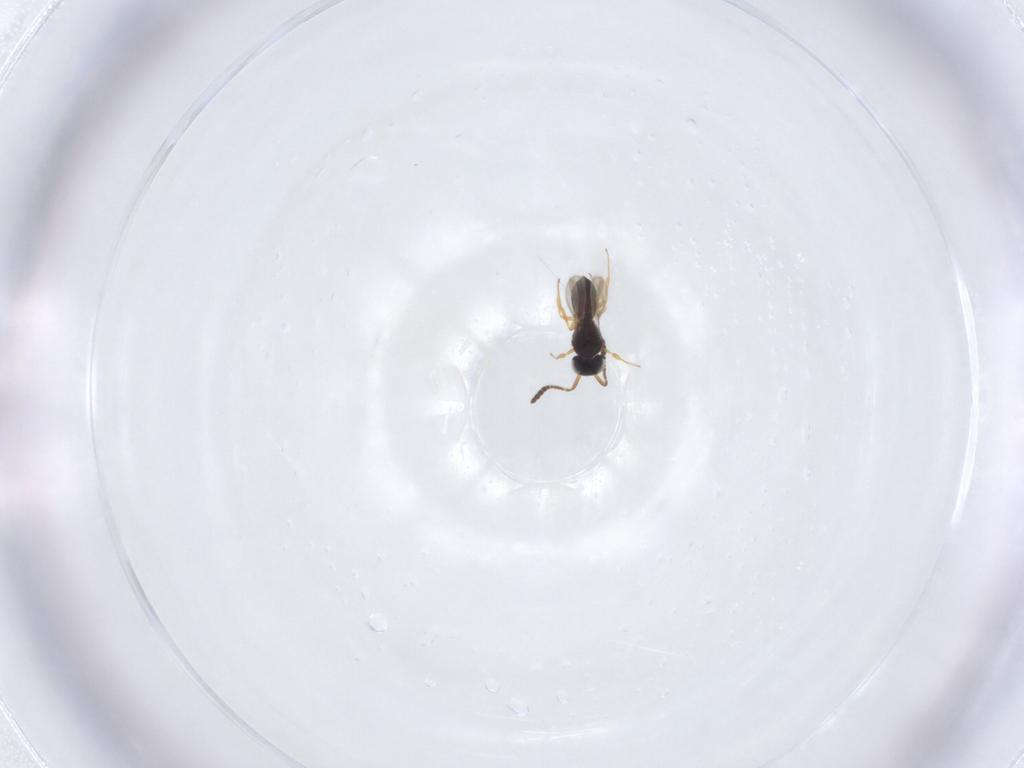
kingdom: Animalia
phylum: Arthropoda
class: Insecta
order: Hymenoptera
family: Scelionidae
